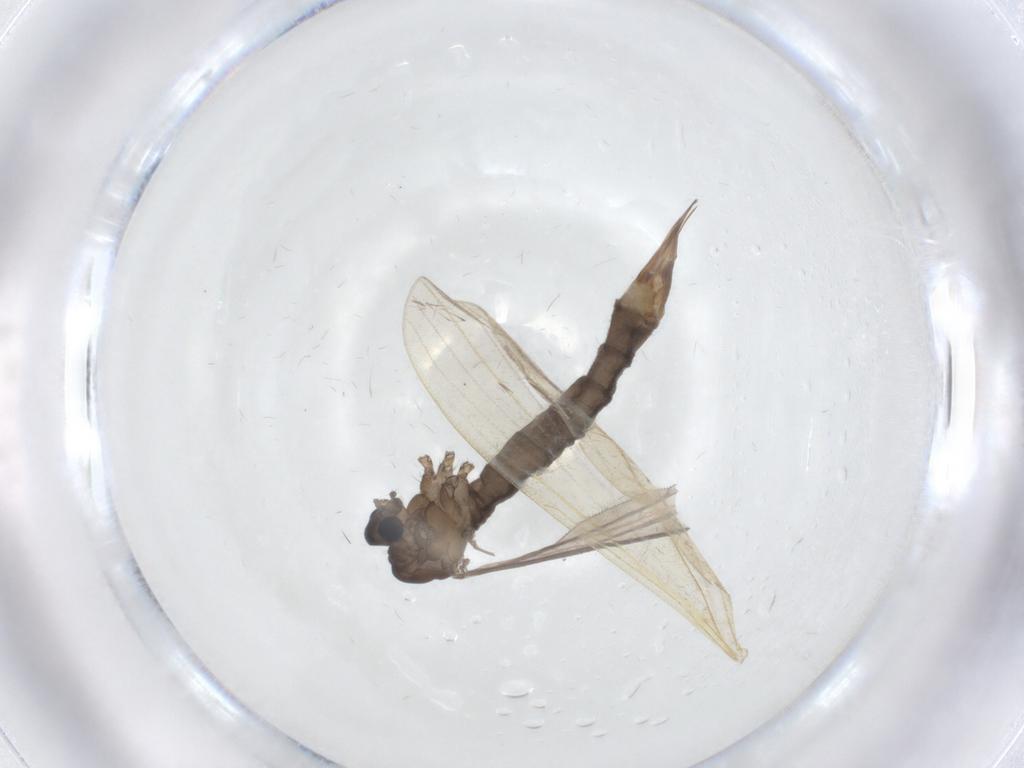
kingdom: Animalia
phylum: Arthropoda
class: Insecta
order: Diptera
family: Limoniidae
